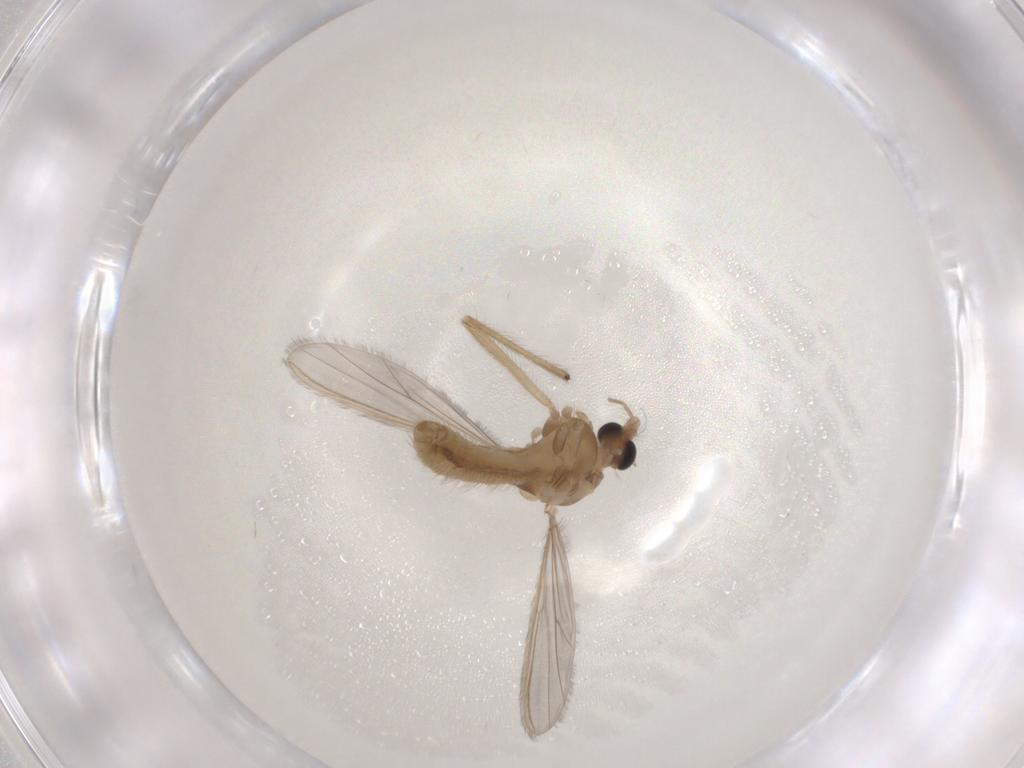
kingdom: Animalia
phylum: Arthropoda
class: Insecta
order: Diptera
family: Chironomidae
